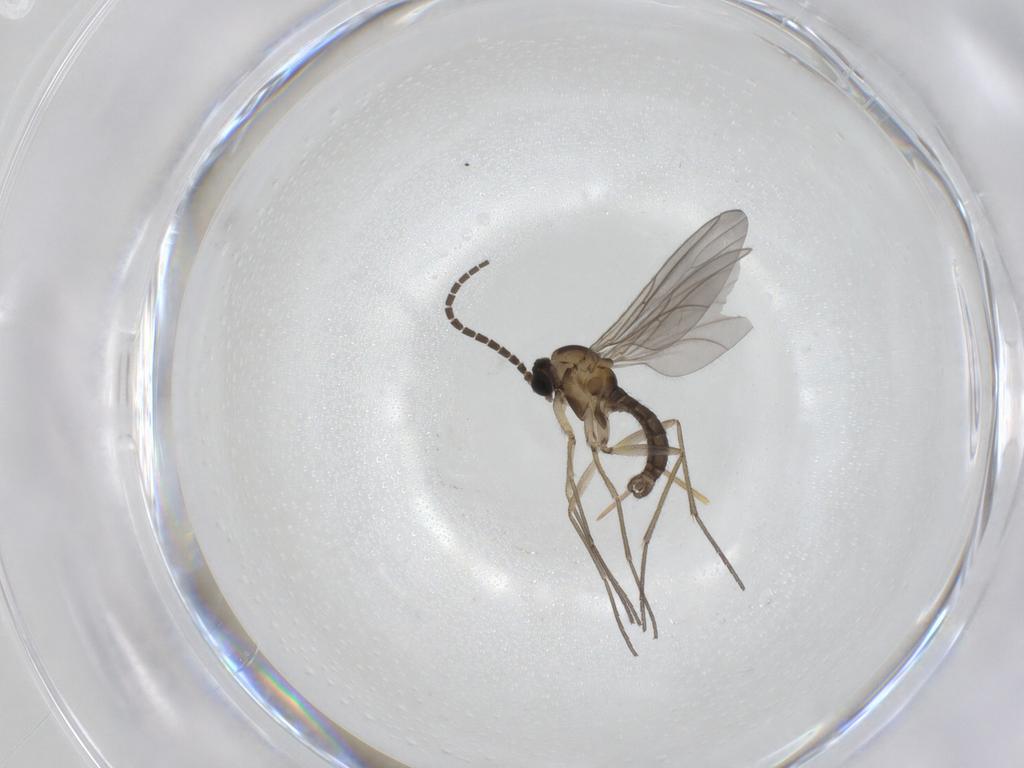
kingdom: Animalia
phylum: Arthropoda
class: Insecta
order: Diptera
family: Sciaridae
